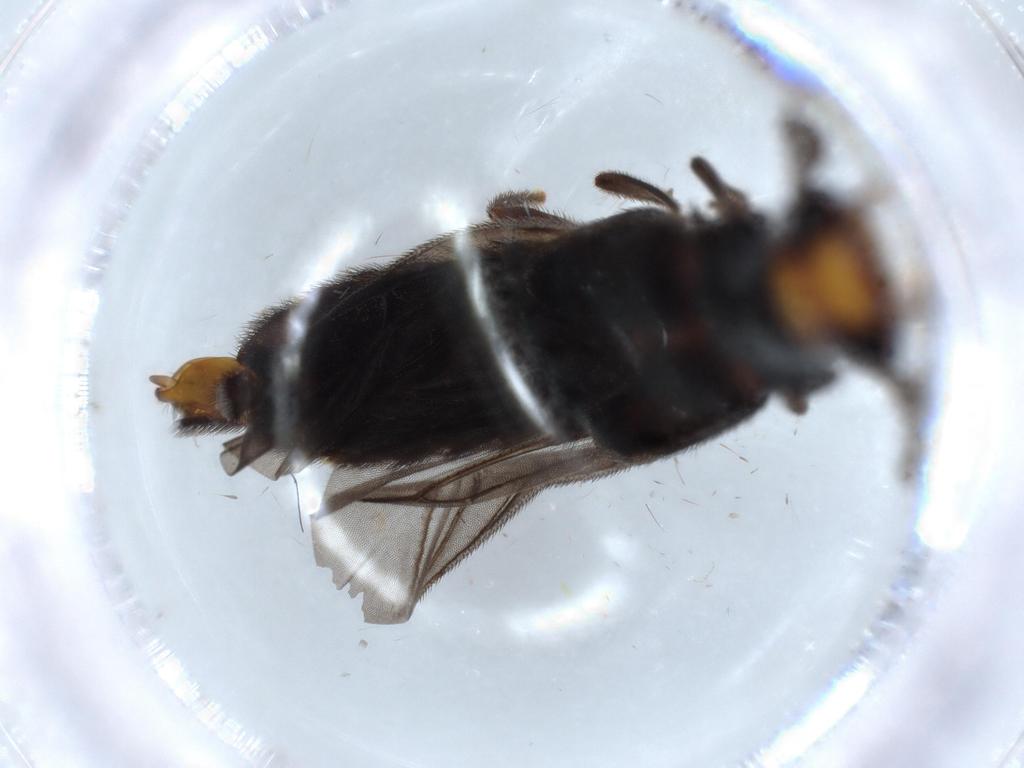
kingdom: Animalia
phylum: Arthropoda
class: Insecta
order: Coleoptera
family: Phengodidae
